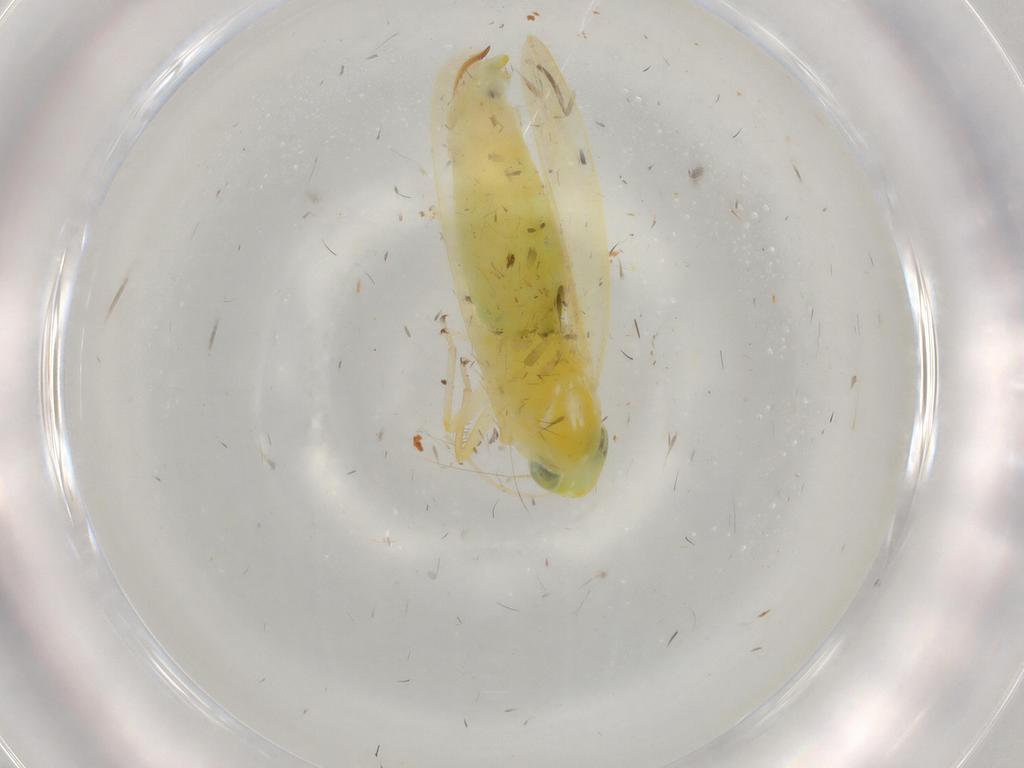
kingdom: Animalia
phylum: Arthropoda
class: Insecta
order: Hemiptera
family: Cicadellidae
